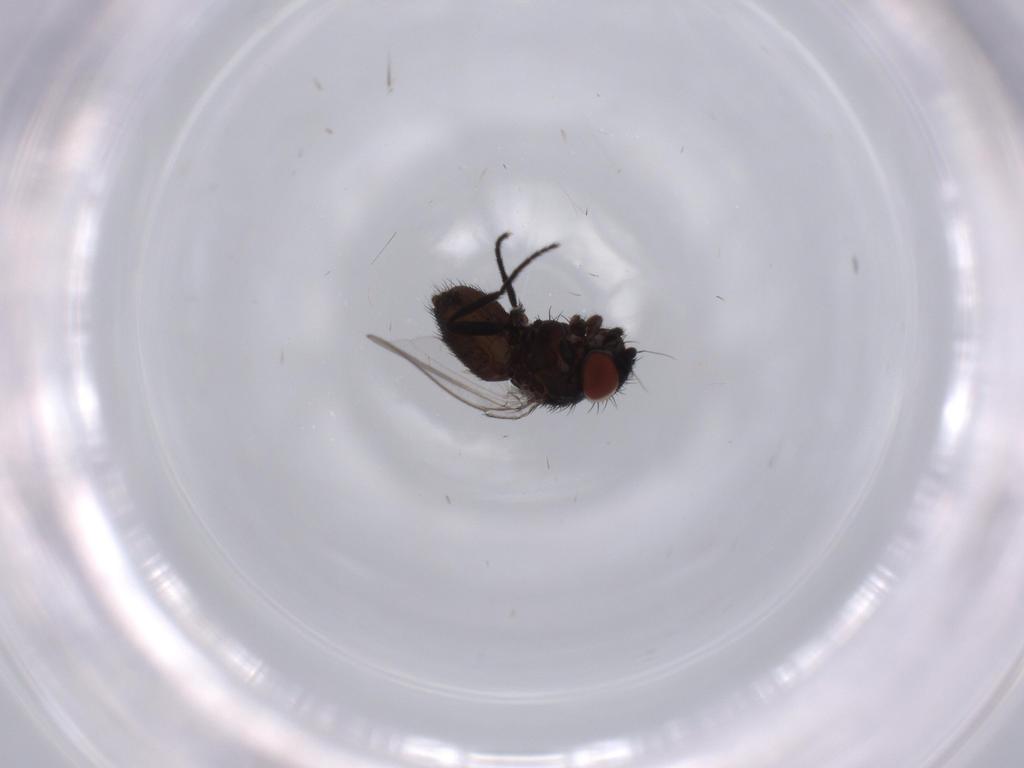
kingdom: Animalia
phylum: Arthropoda
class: Insecta
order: Diptera
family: Milichiidae
